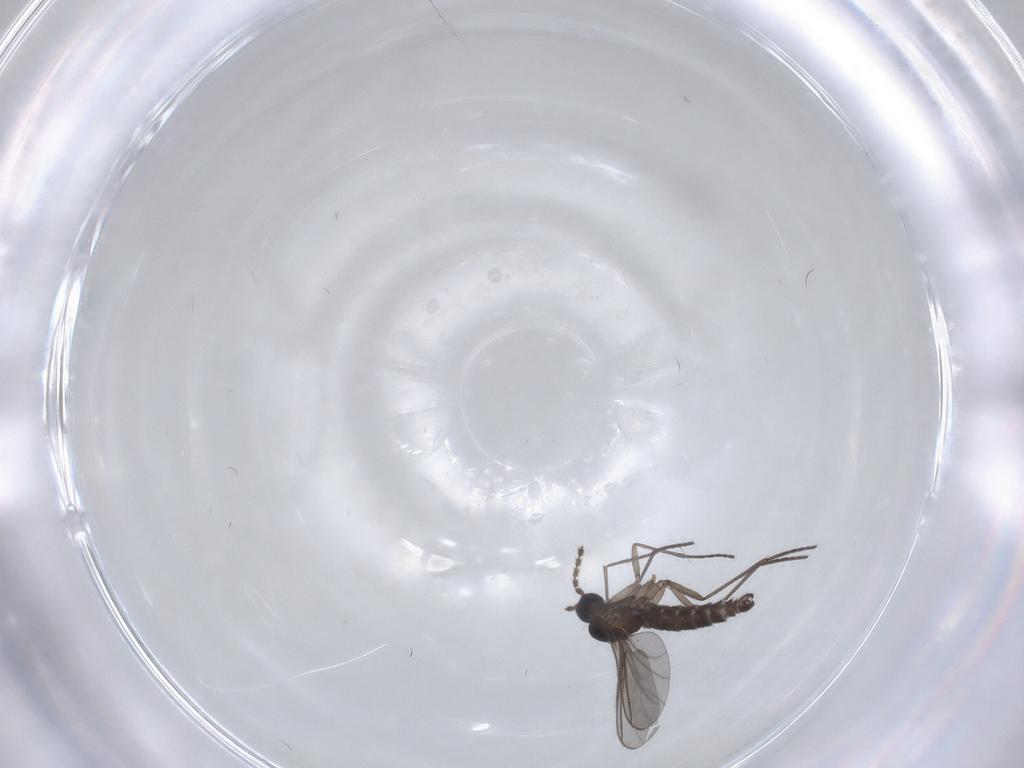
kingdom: Animalia
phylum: Arthropoda
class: Insecta
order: Diptera
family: Sciaridae
